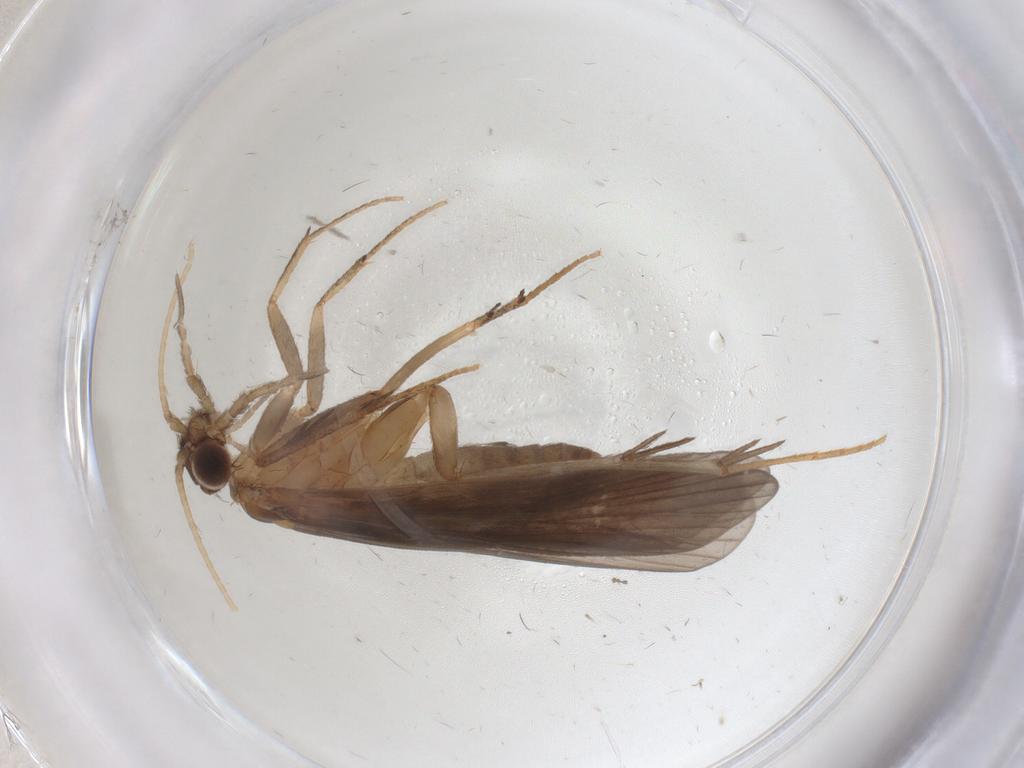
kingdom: Animalia
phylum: Arthropoda
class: Insecta
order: Trichoptera
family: Philopotamidae
